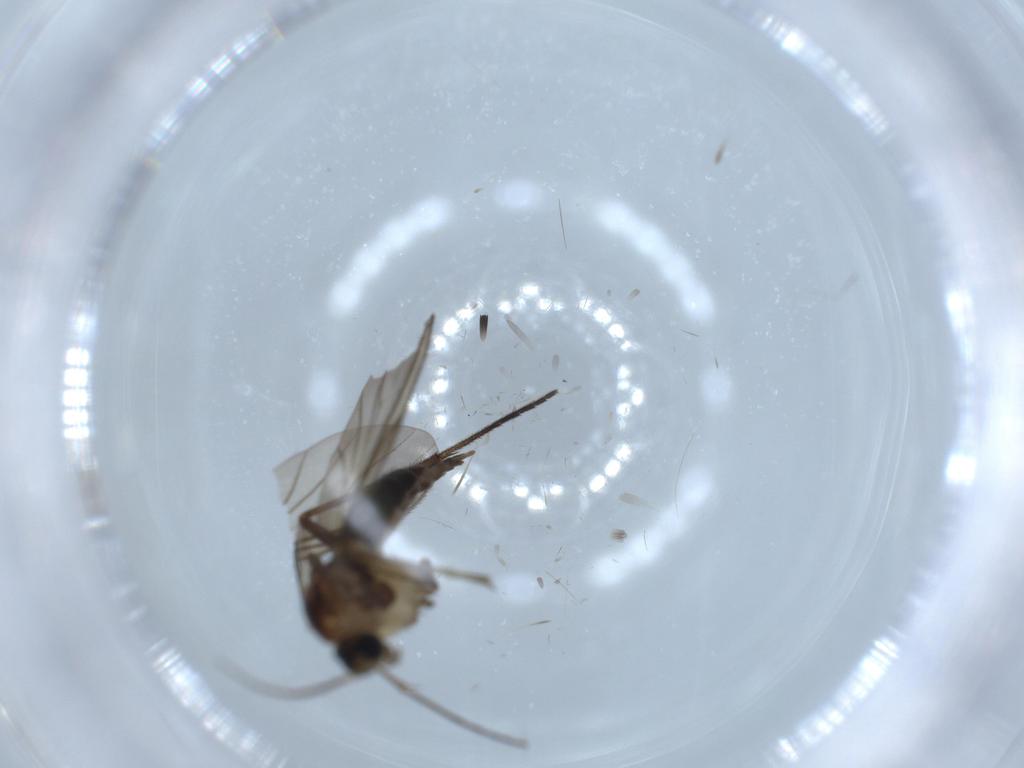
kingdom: Animalia
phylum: Arthropoda
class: Insecta
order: Diptera
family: Sciaridae
